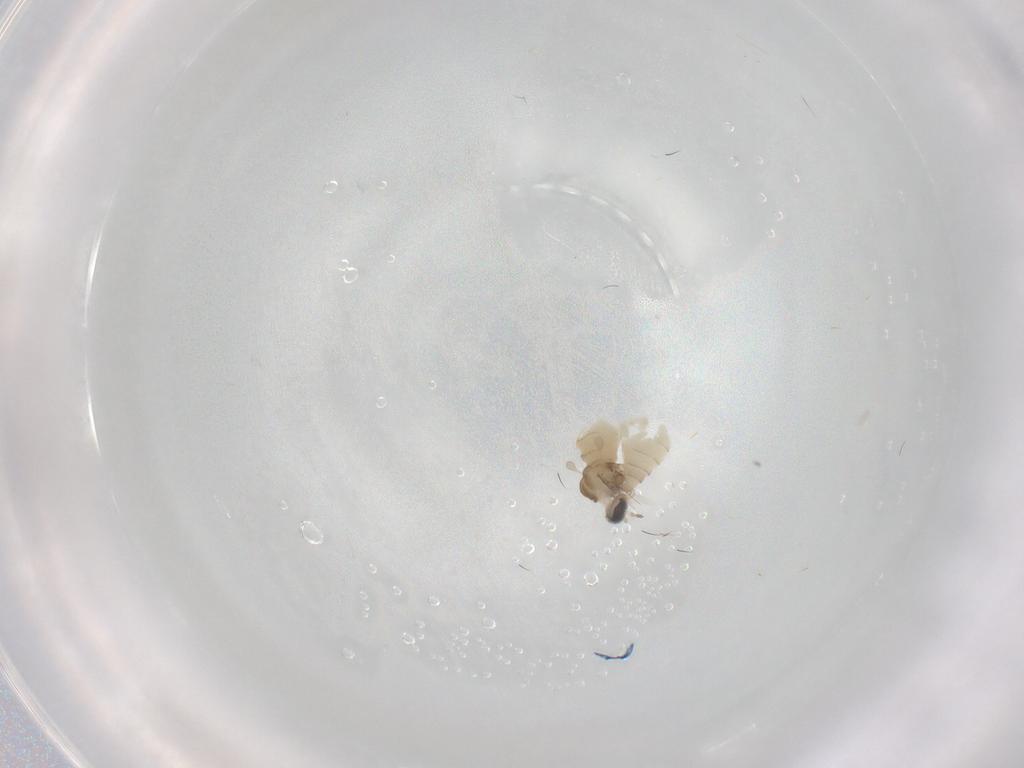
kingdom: Animalia
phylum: Arthropoda
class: Insecta
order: Diptera
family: Cecidomyiidae
